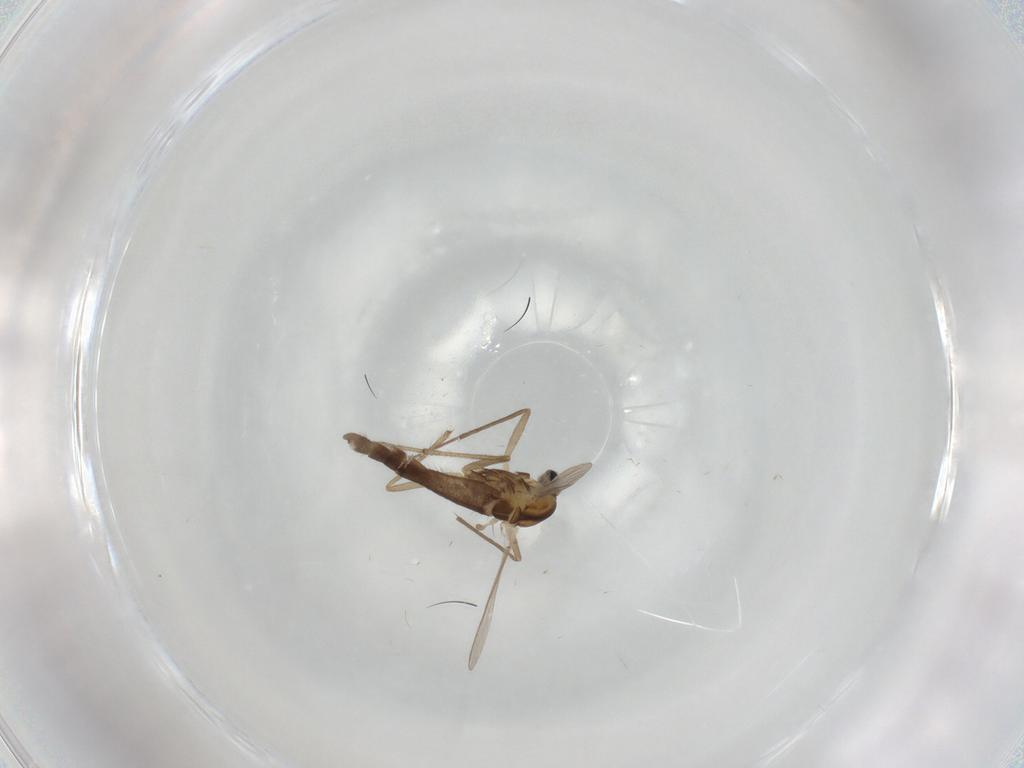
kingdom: Animalia
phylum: Arthropoda
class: Insecta
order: Diptera
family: Chironomidae
